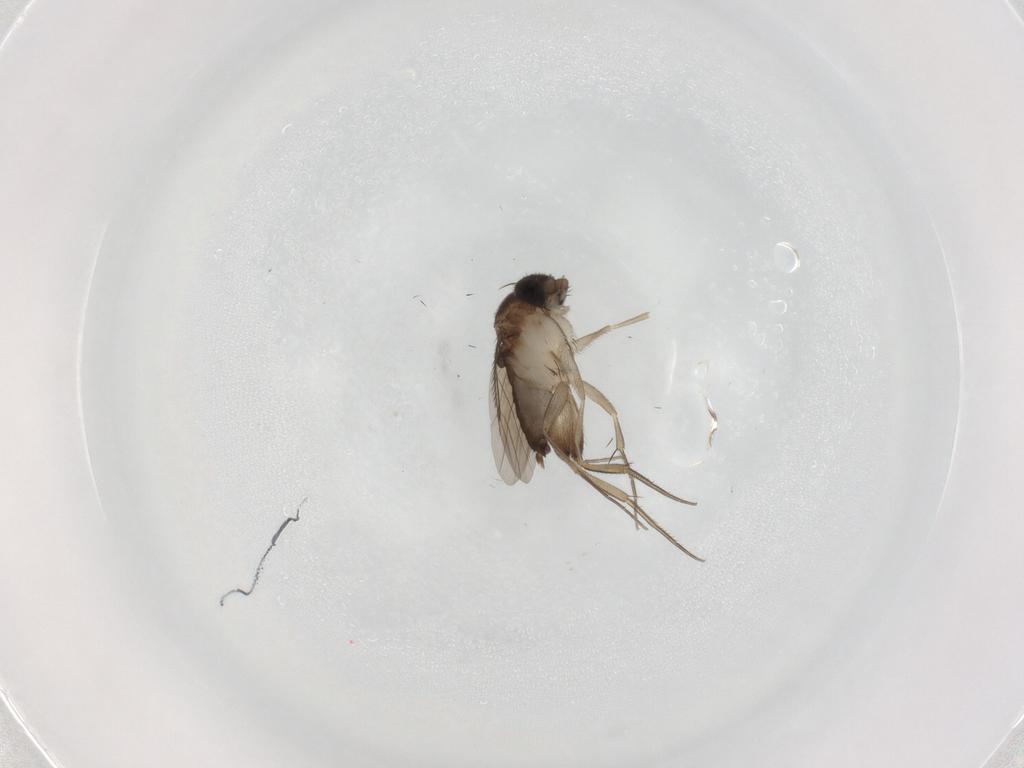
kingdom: Animalia
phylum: Arthropoda
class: Insecta
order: Diptera
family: Phoridae
